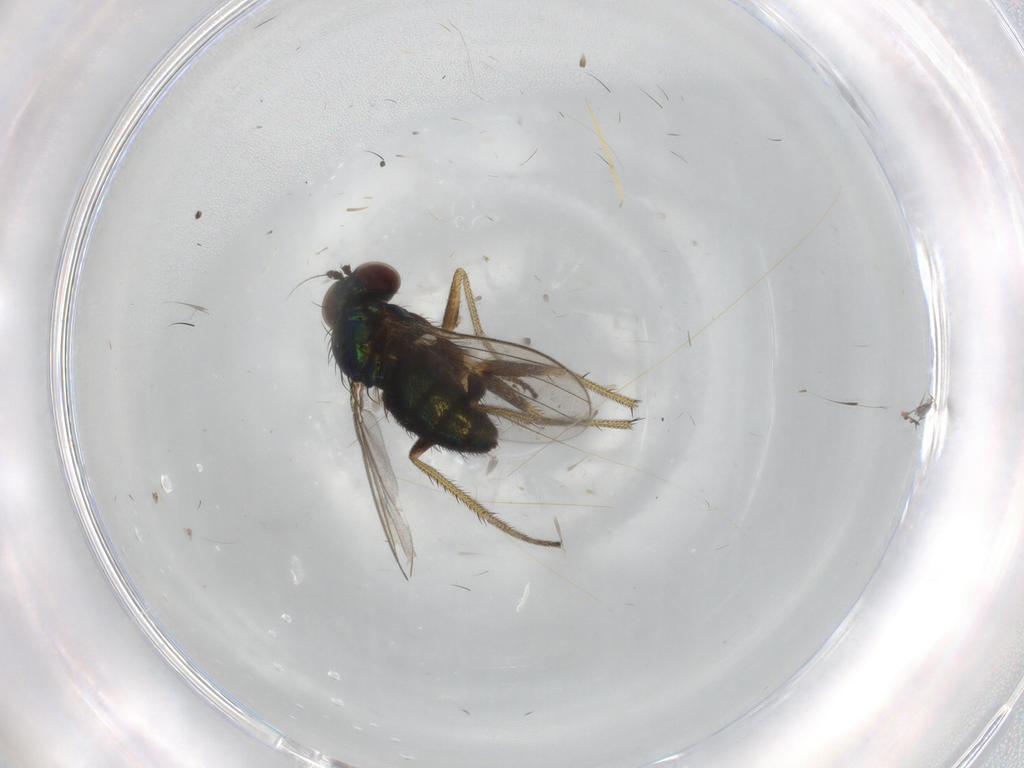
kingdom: Animalia
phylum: Arthropoda
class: Insecta
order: Diptera
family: Dolichopodidae
